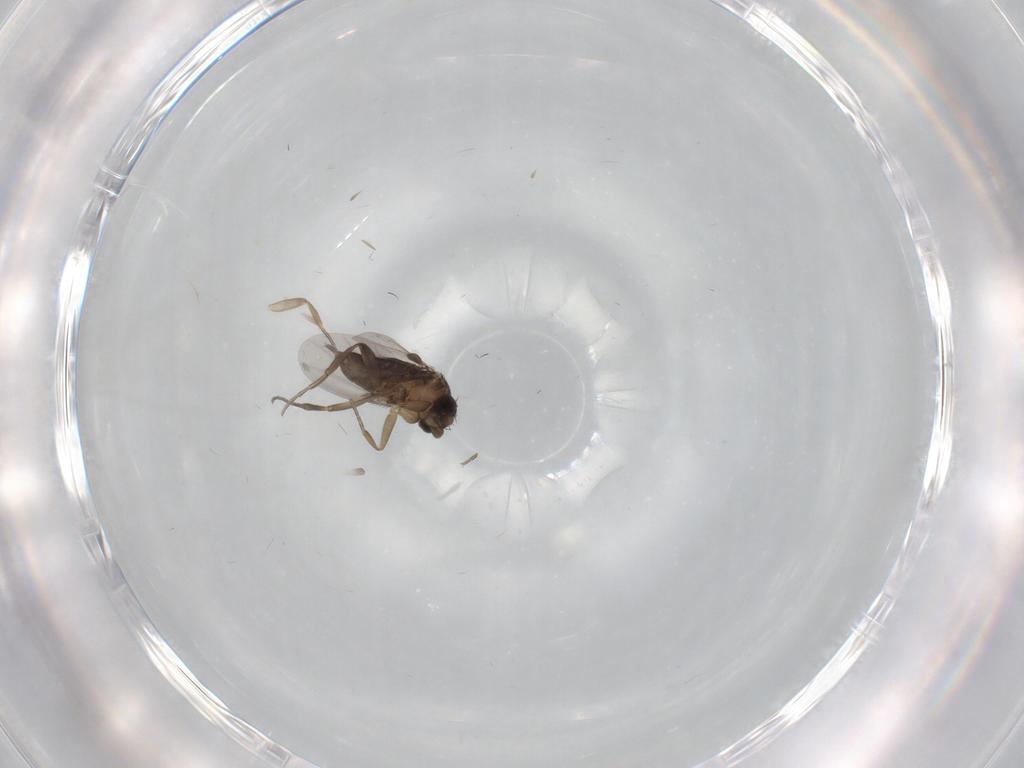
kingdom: Animalia
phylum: Arthropoda
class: Insecta
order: Diptera
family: Phoridae
